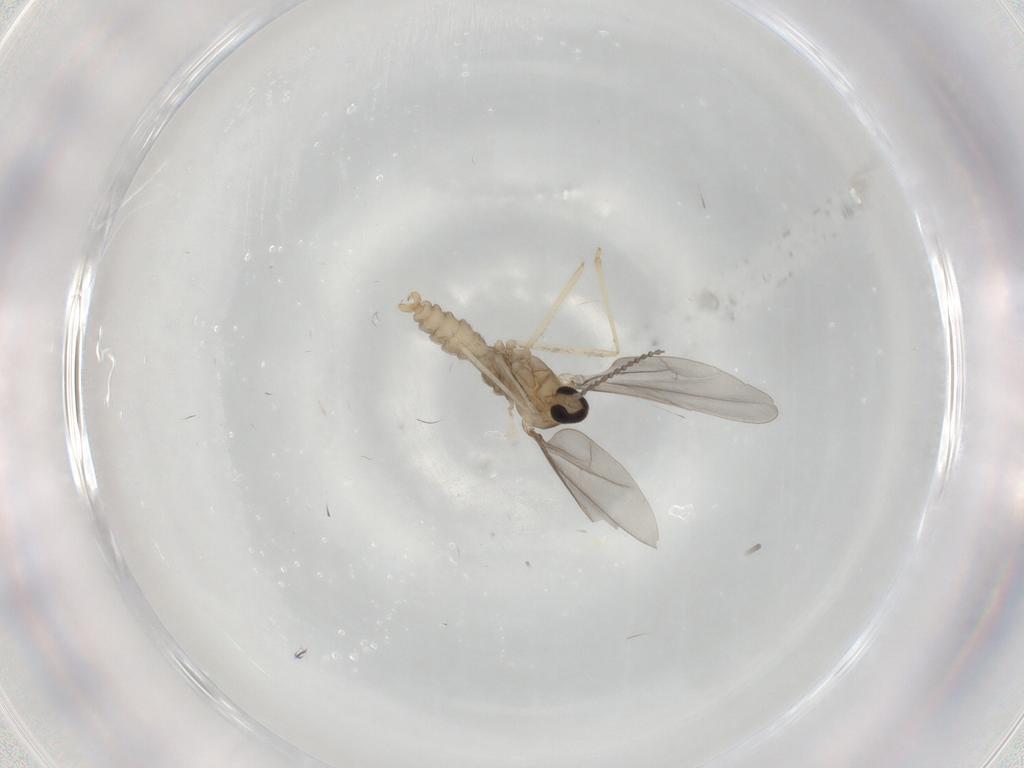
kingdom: Animalia
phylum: Arthropoda
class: Insecta
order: Diptera
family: Cecidomyiidae
